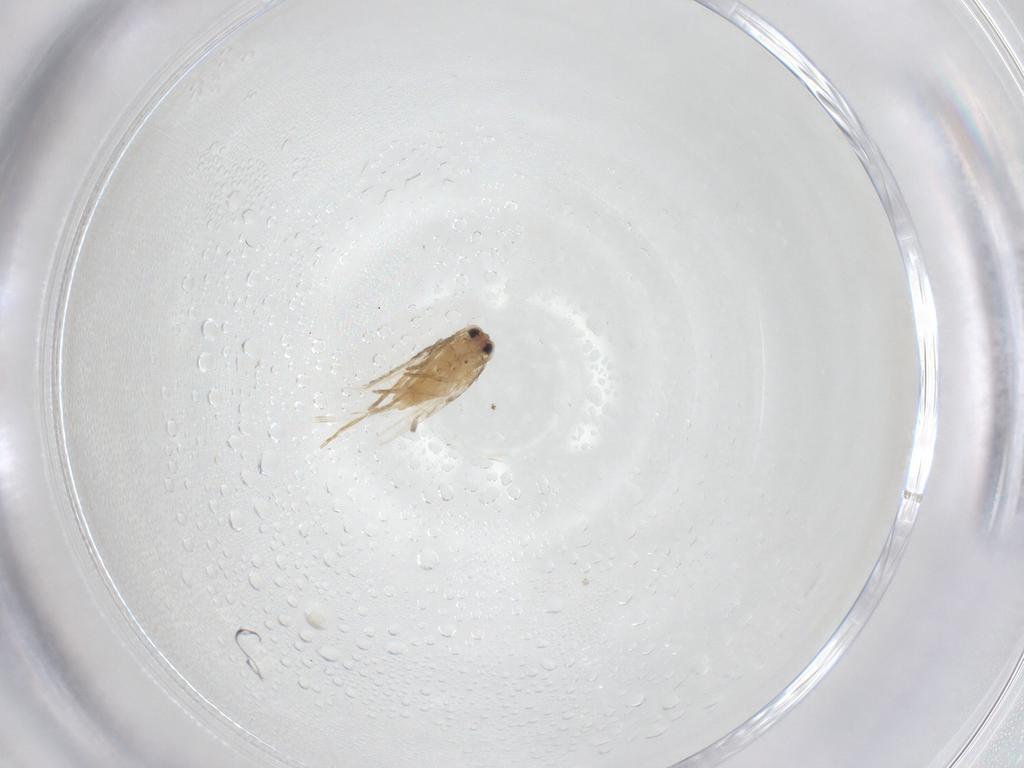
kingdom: Animalia
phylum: Arthropoda
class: Insecta
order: Lepidoptera
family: Nepticulidae
